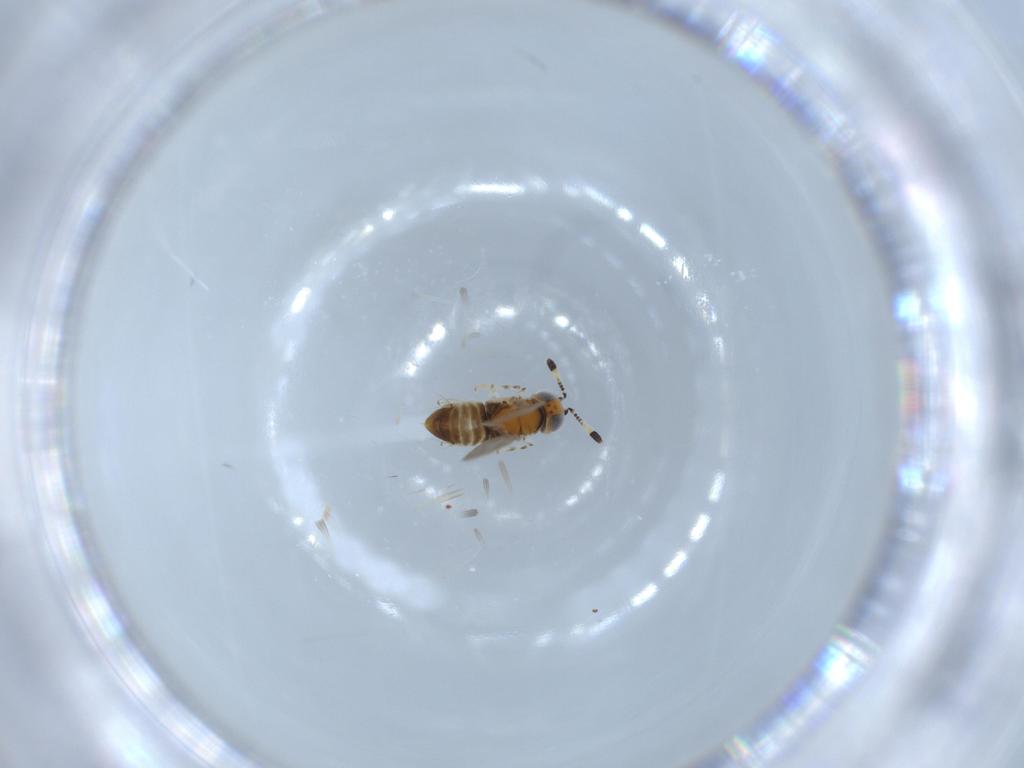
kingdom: Animalia
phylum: Arthropoda
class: Insecta
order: Hymenoptera
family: Encyrtidae
